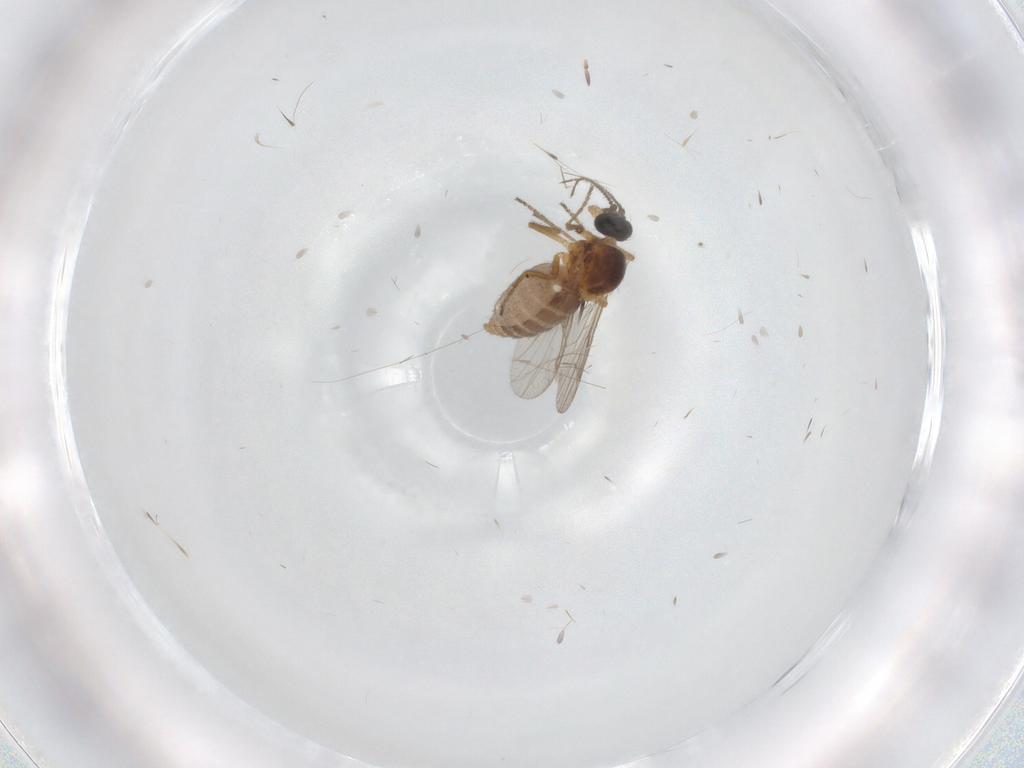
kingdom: Animalia
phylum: Arthropoda
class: Insecta
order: Diptera
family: Ceratopogonidae
